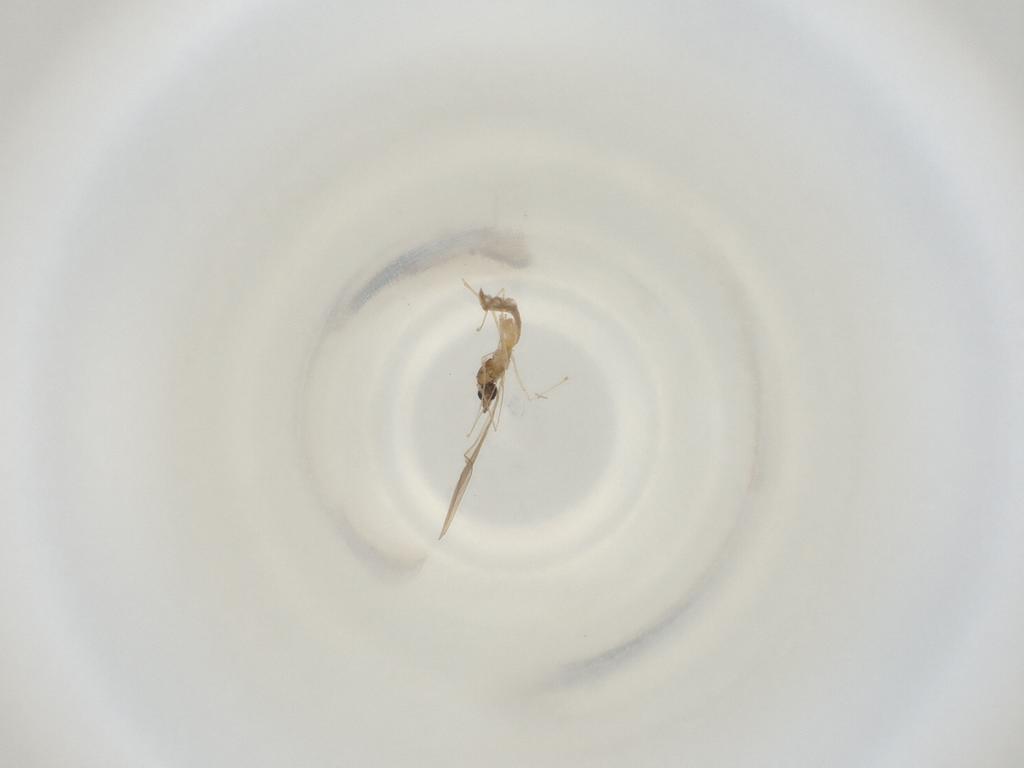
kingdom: Animalia
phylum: Arthropoda
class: Insecta
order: Diptera
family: Cecidomyiidae
